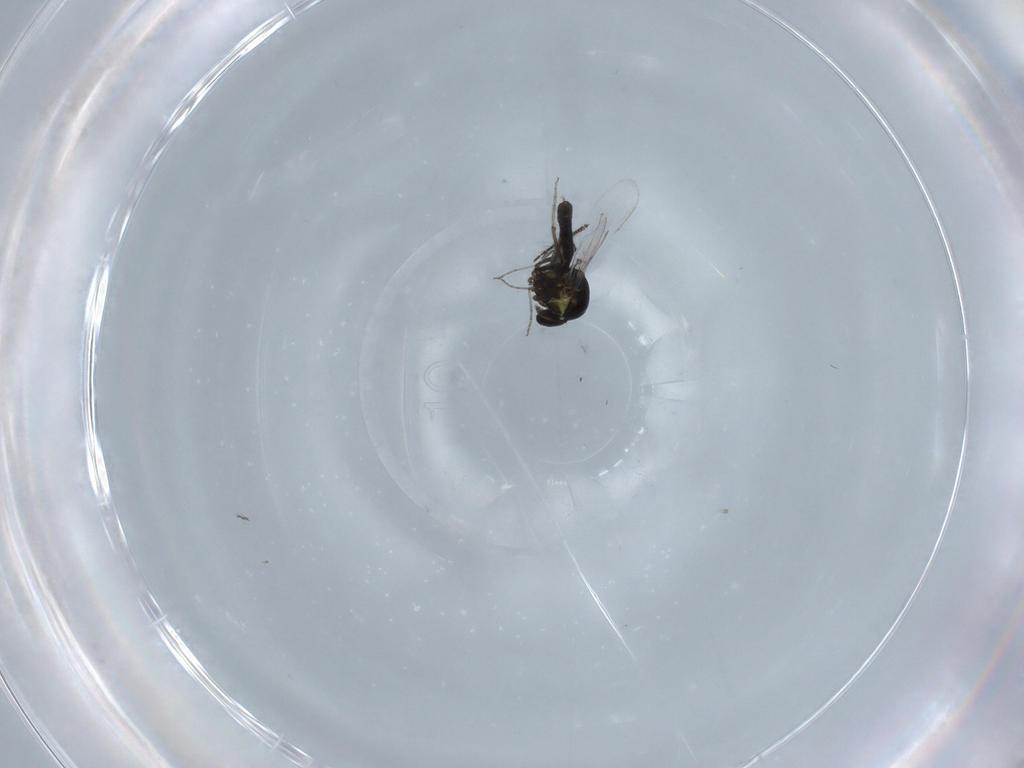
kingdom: Animalia
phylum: Arthropoda
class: Insecta
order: Diptera
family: Ceratopogonidae
